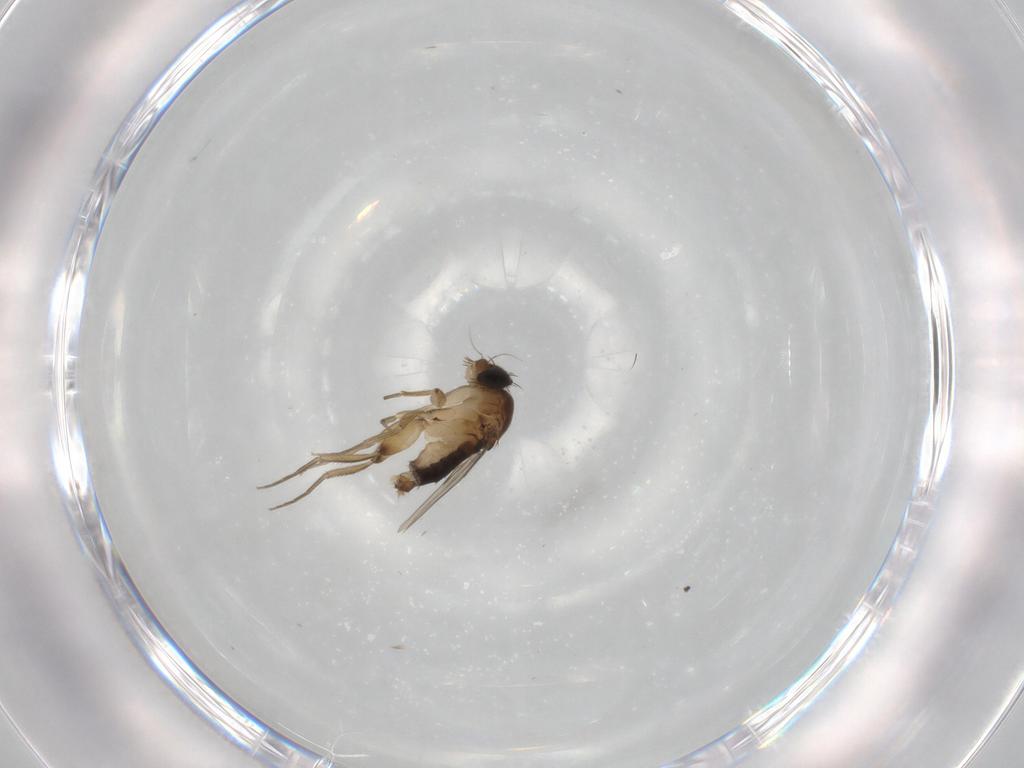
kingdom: Animalia
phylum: Arthropoda
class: Insecta
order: Diptera
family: Phoridae
